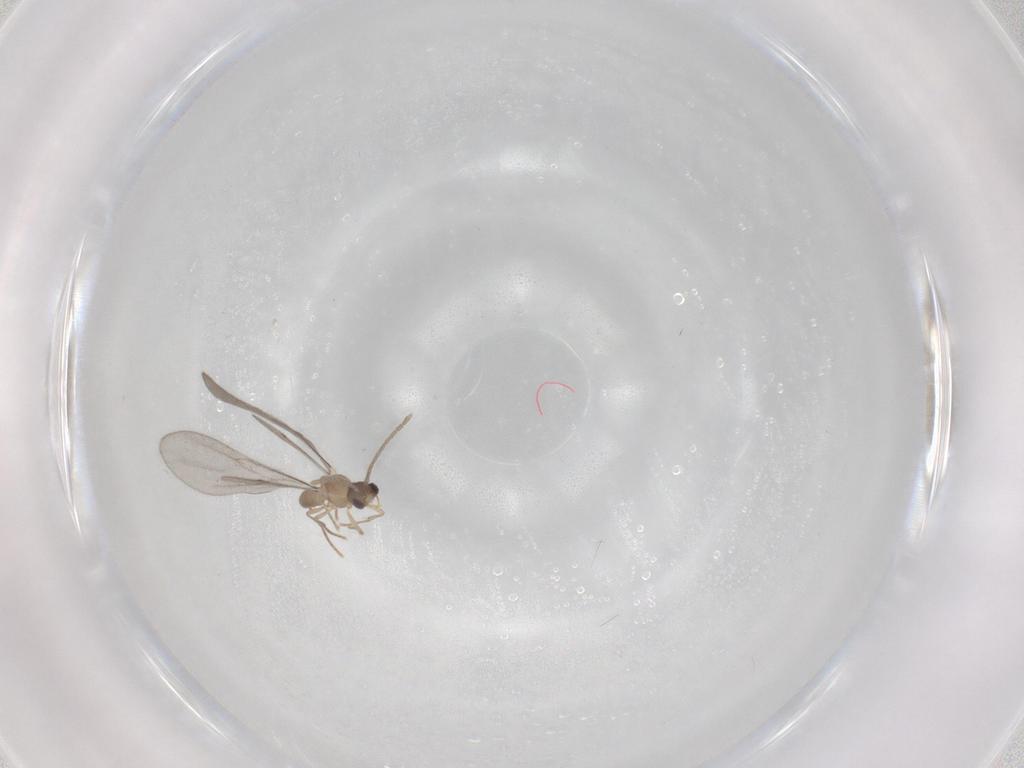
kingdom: Animalia
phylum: Arthropoda
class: Insecta
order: Hymenoptera
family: Formicidae
